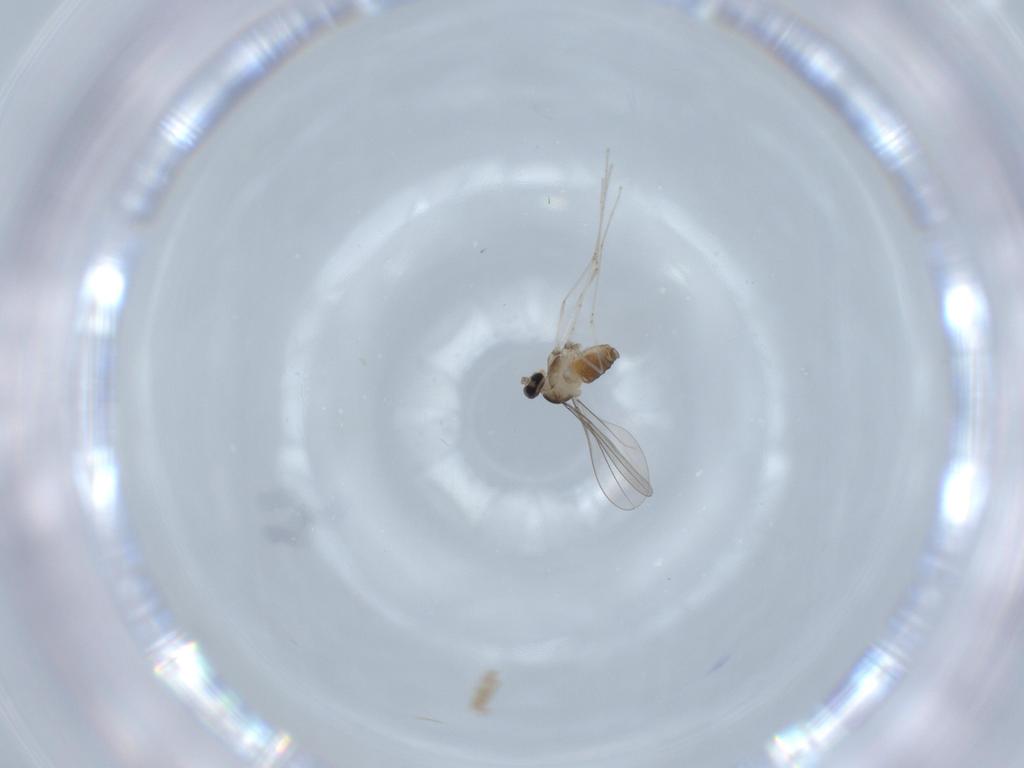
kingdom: Animalia
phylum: Arthropoda
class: Insecta
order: Diptera
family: Cecidomyiidae
